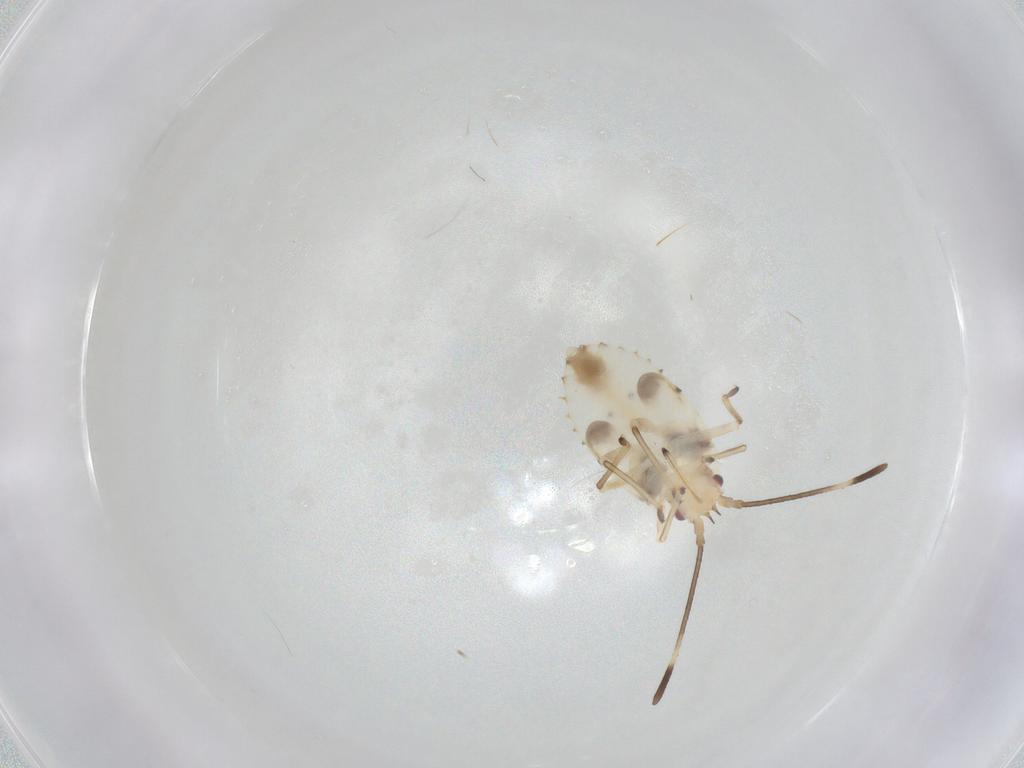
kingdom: Animalia
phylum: Arthropoda
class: Insecta
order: Hemiptera
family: Tingidae
